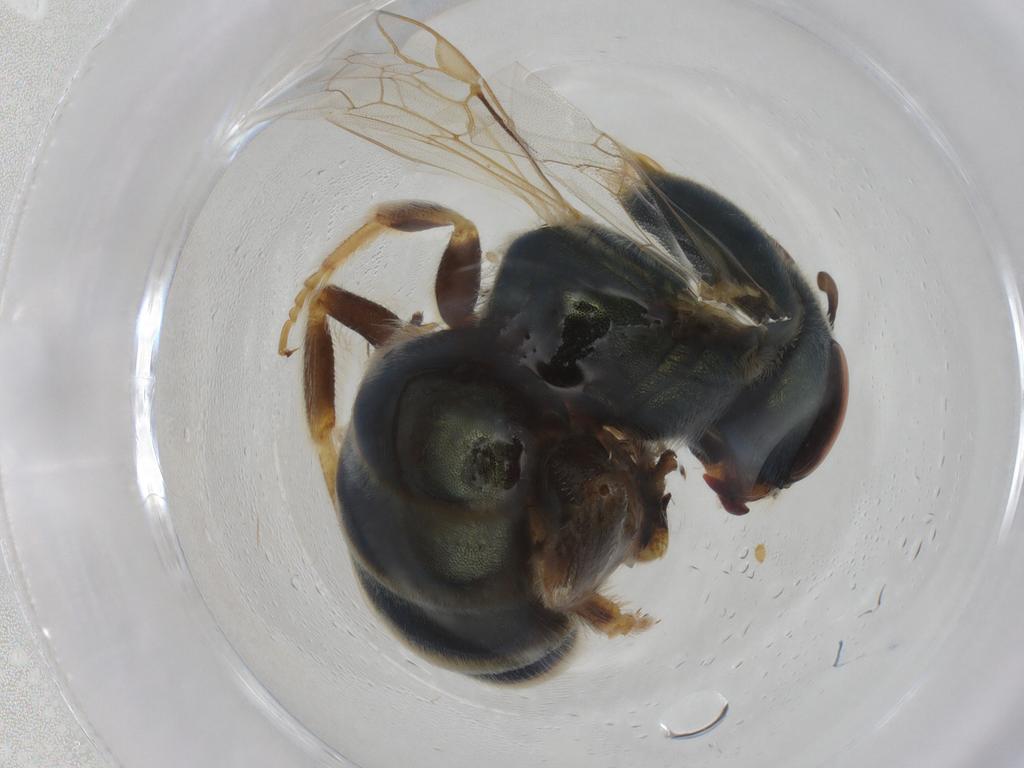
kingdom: Animalia
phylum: Arthropoda
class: Insecta
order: Hymenoptera
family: Halictidae
